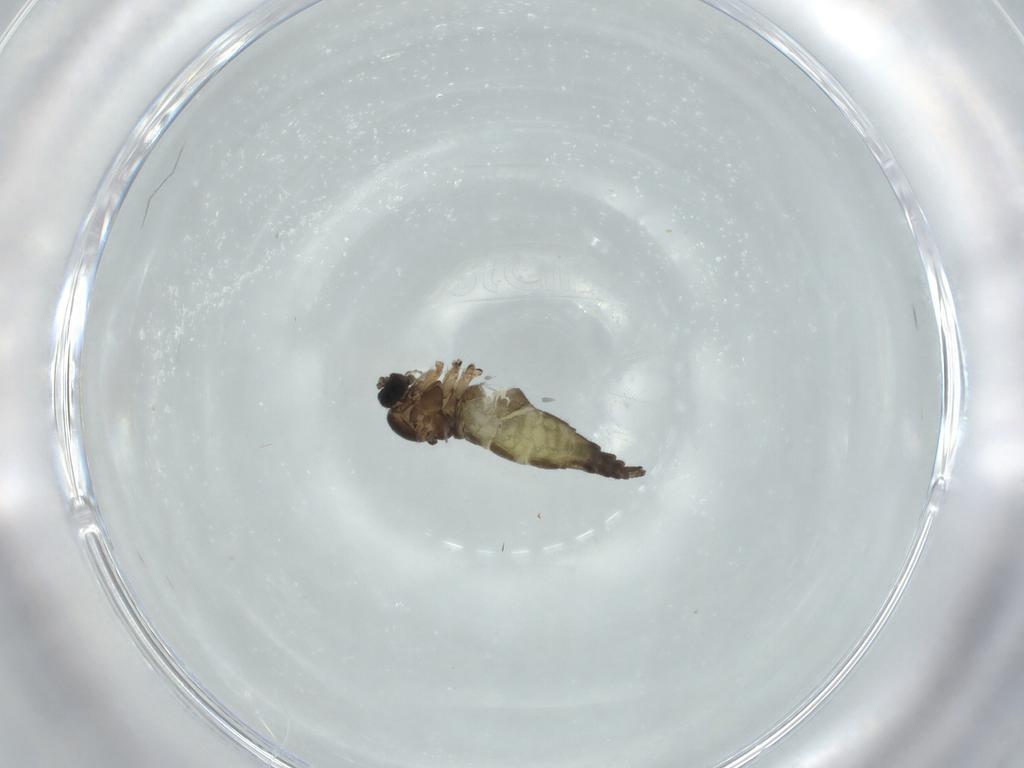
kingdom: Animalia
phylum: Arthropoda
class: Insecta
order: Diptera
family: Sciaridae
